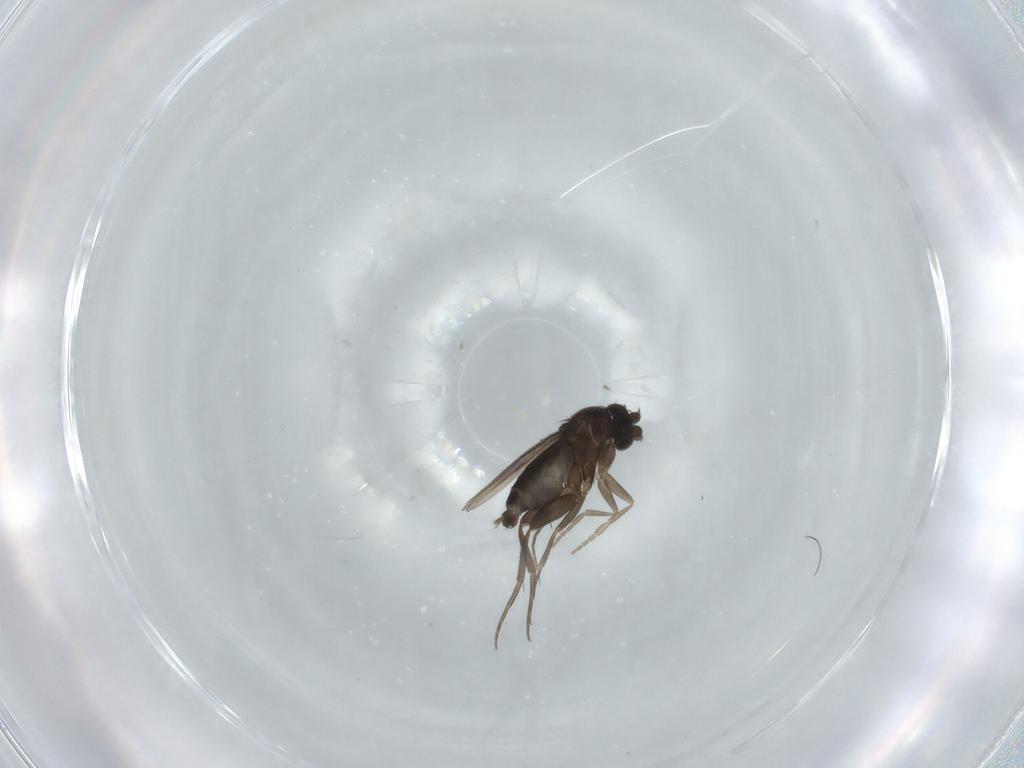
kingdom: Animalia
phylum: Arthropoda
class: Insecta
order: Diptera
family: Phoridae
